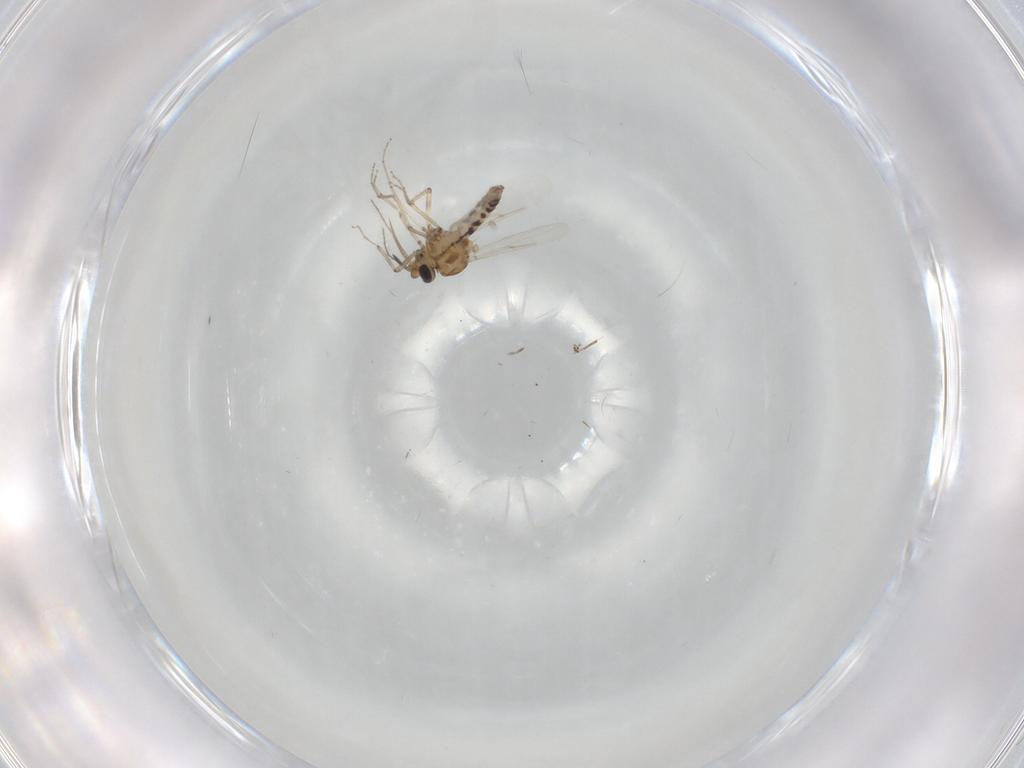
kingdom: Animalia
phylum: Arthropoda
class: Insecta
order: Diptera
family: Ceratopogonidae
